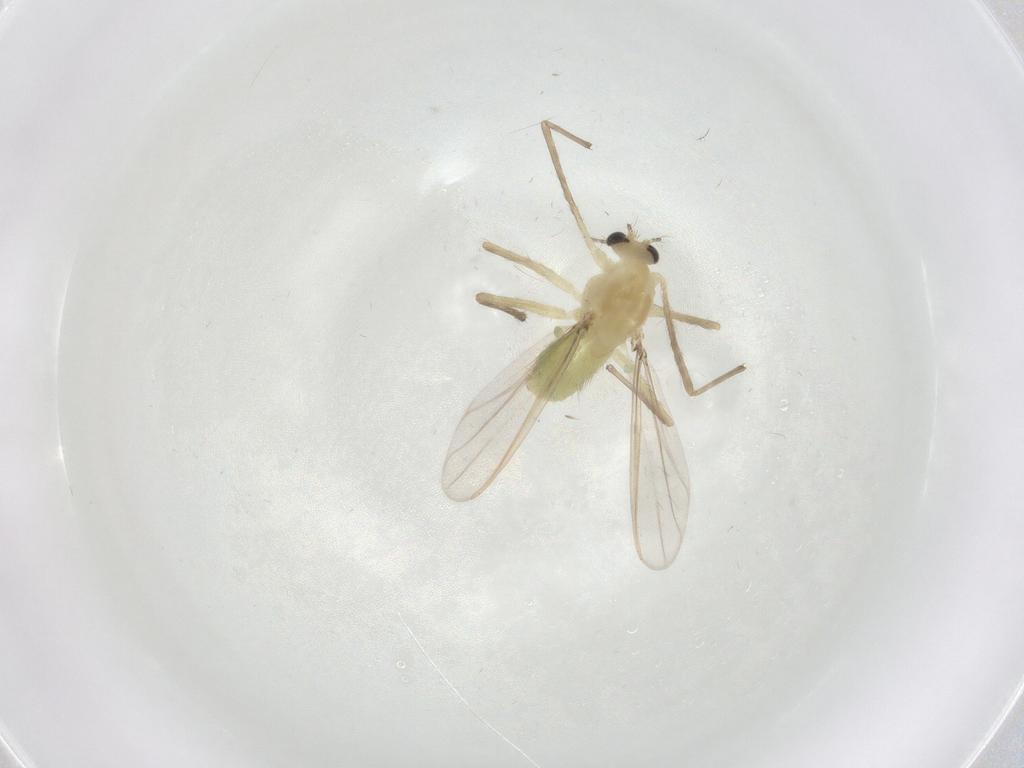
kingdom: Animalia
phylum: Arthropoda
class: Insecta
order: Diptera
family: Chironomidae
